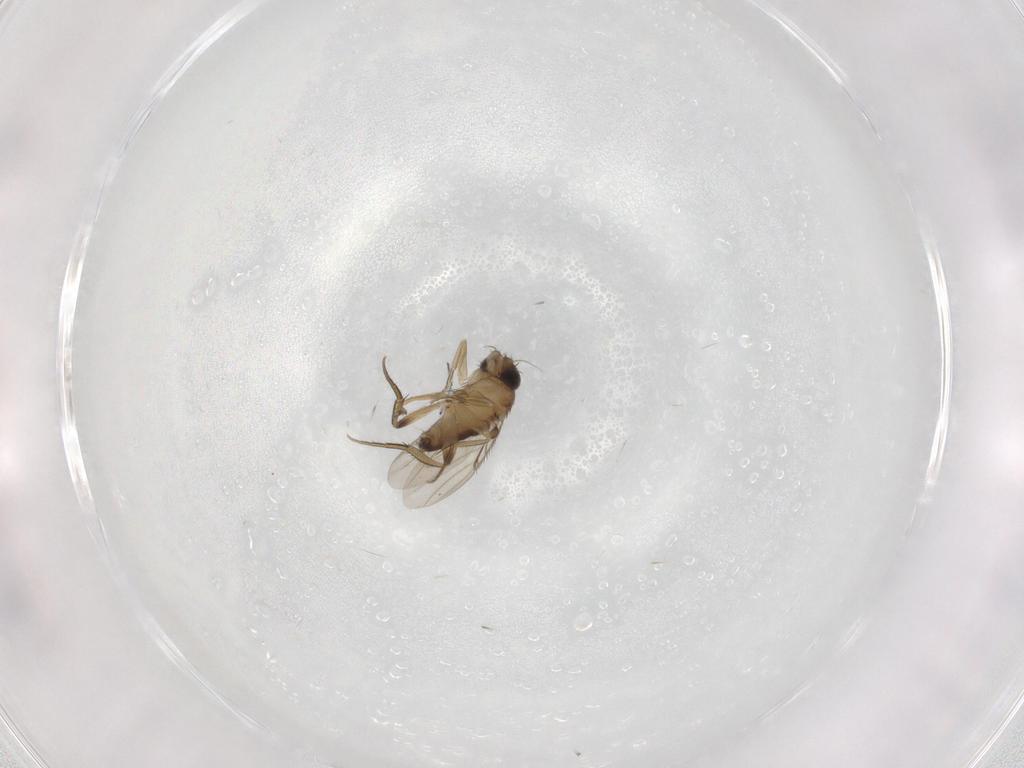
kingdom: Animalia
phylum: Arthropoda
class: Insecta
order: Diptera
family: Phoridae
